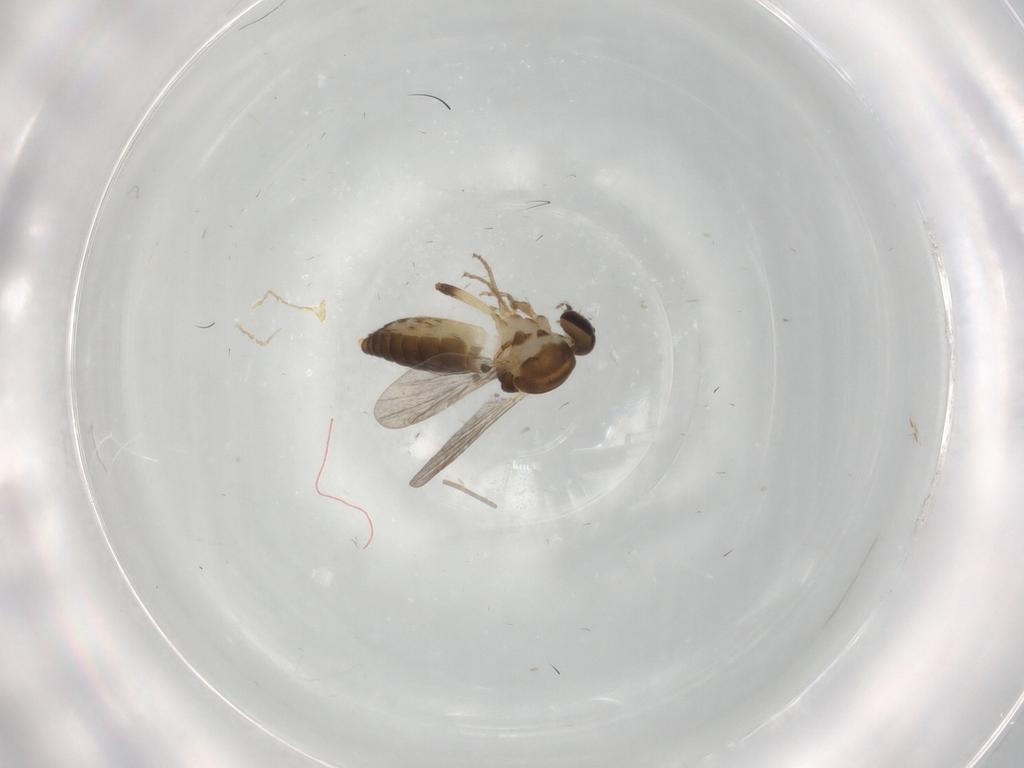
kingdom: Animalia
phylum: Arthropoda
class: Insecta
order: Diptera
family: Ceratopogonidae
